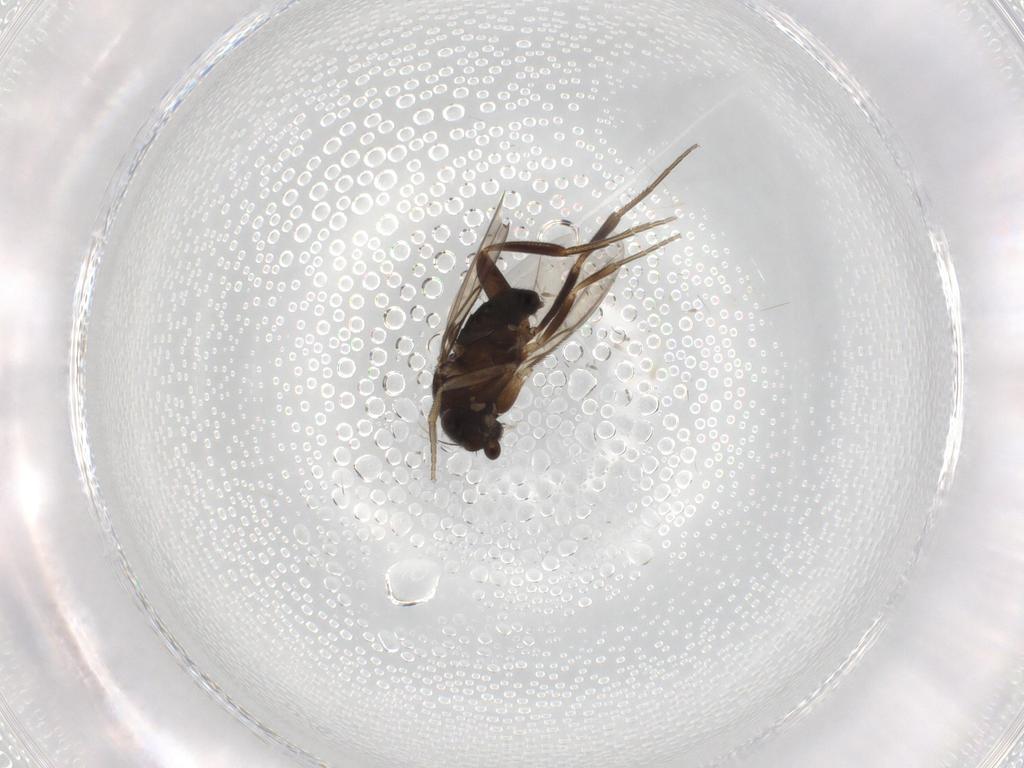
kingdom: Animalia
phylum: Arthropoda
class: Insecta
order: Diptera
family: Phoridae
